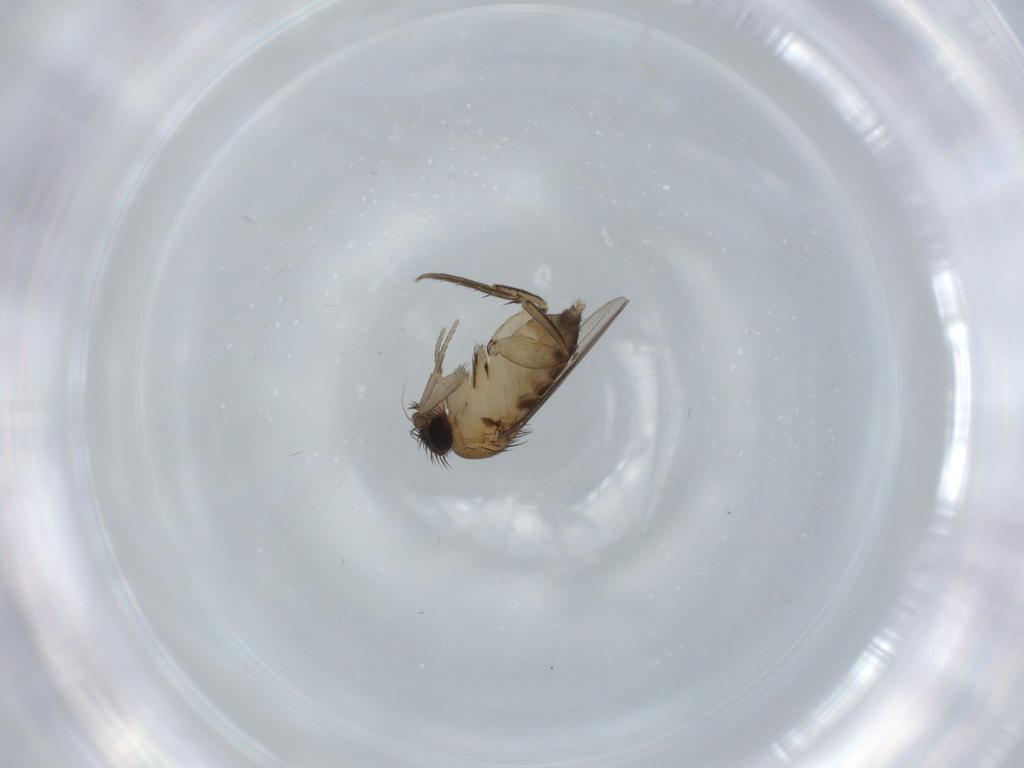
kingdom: Animalia
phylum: Arthropoda
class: Insecta
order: Diptera
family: Phoridae
